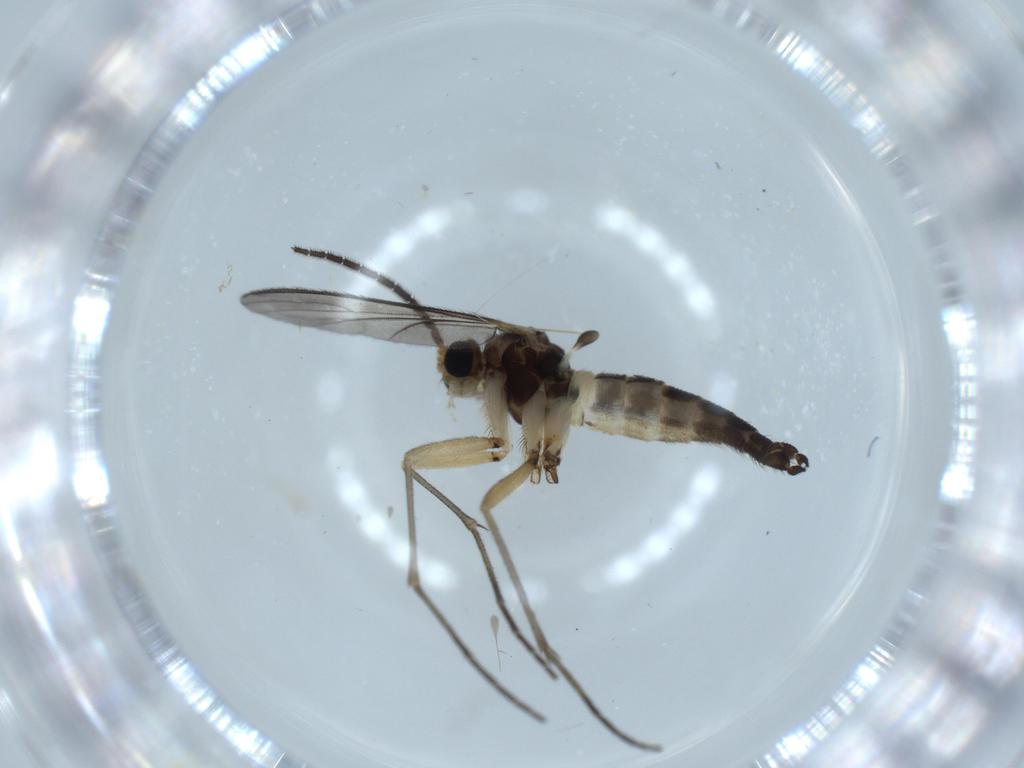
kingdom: Animalia
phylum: Arthropoda
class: Insecta
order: Diptera
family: Sciaridae
